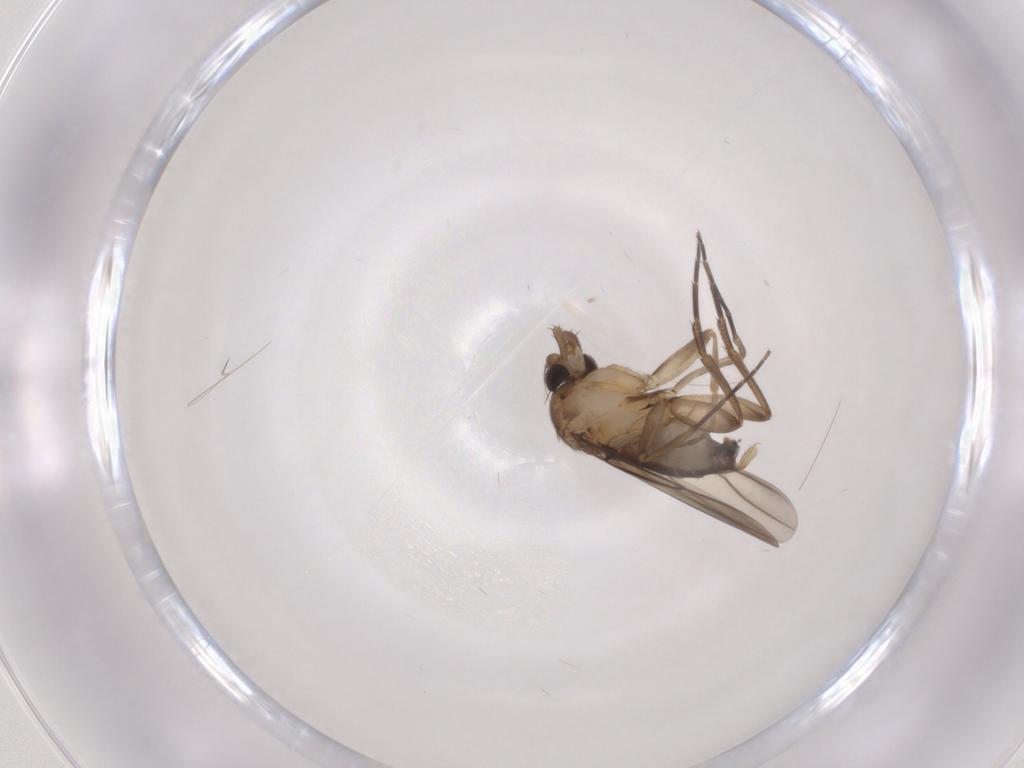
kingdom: Animalia
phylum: Arthropoda
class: Insecta
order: Diptera
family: Phoridae
